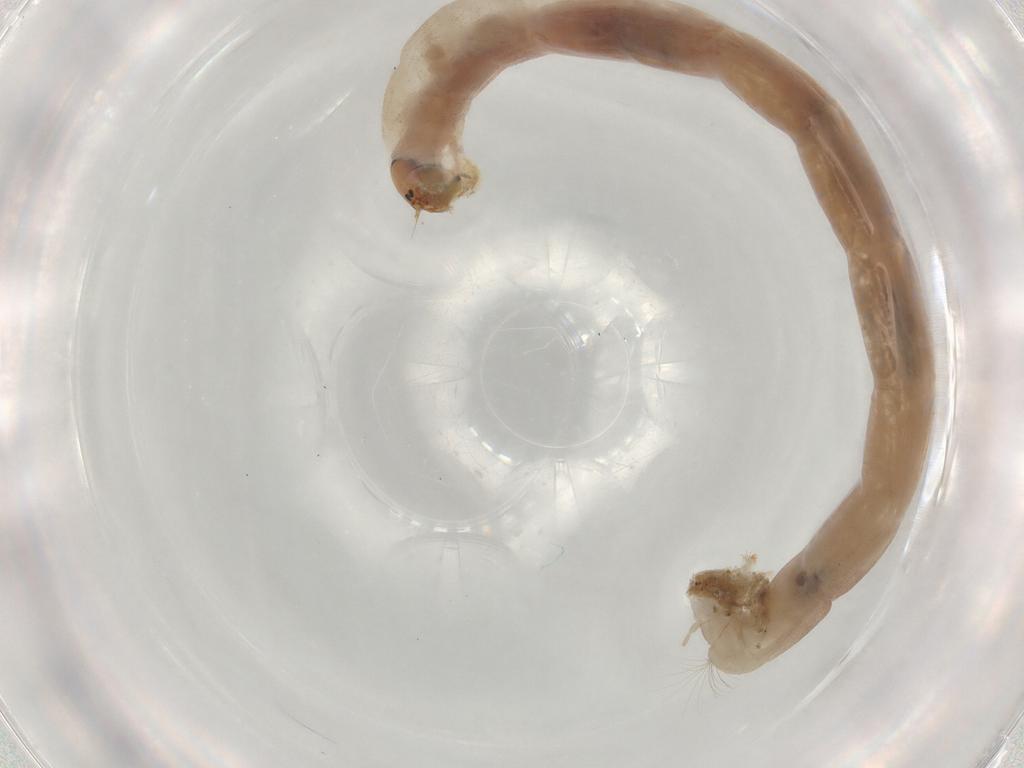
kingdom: Animalia
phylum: Arthropoda
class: Insecta
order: Diptera
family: Chironomidae
